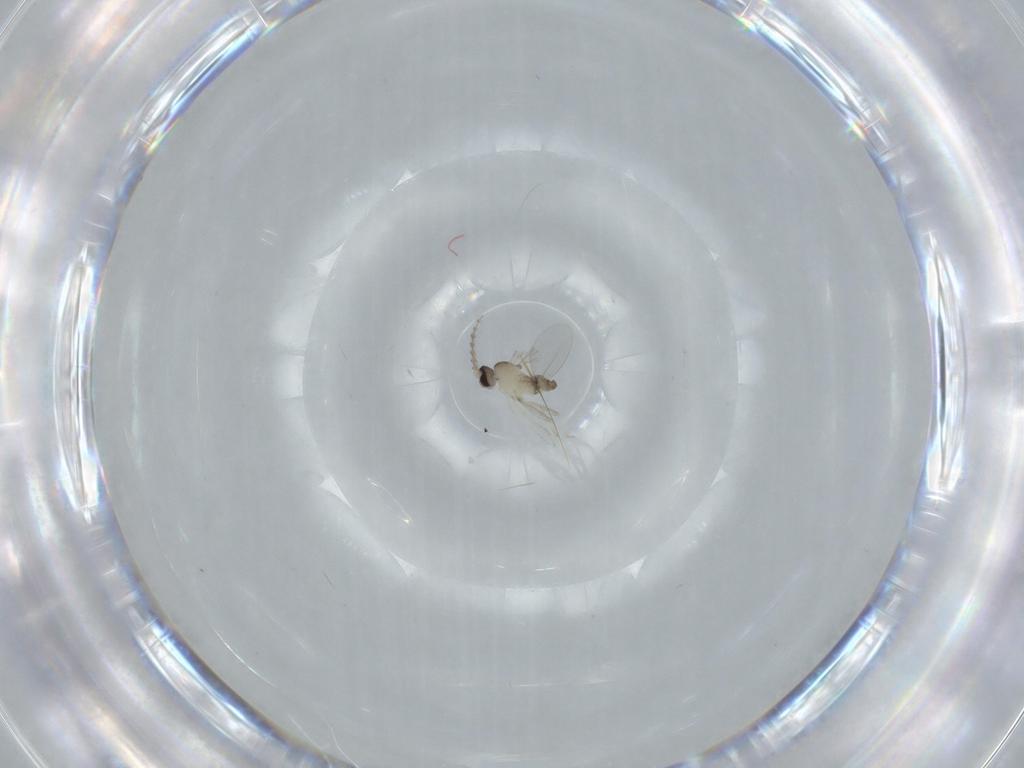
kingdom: Animalia
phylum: Arthropoda
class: Insecta
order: Diptera
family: Cecidomyiidae
